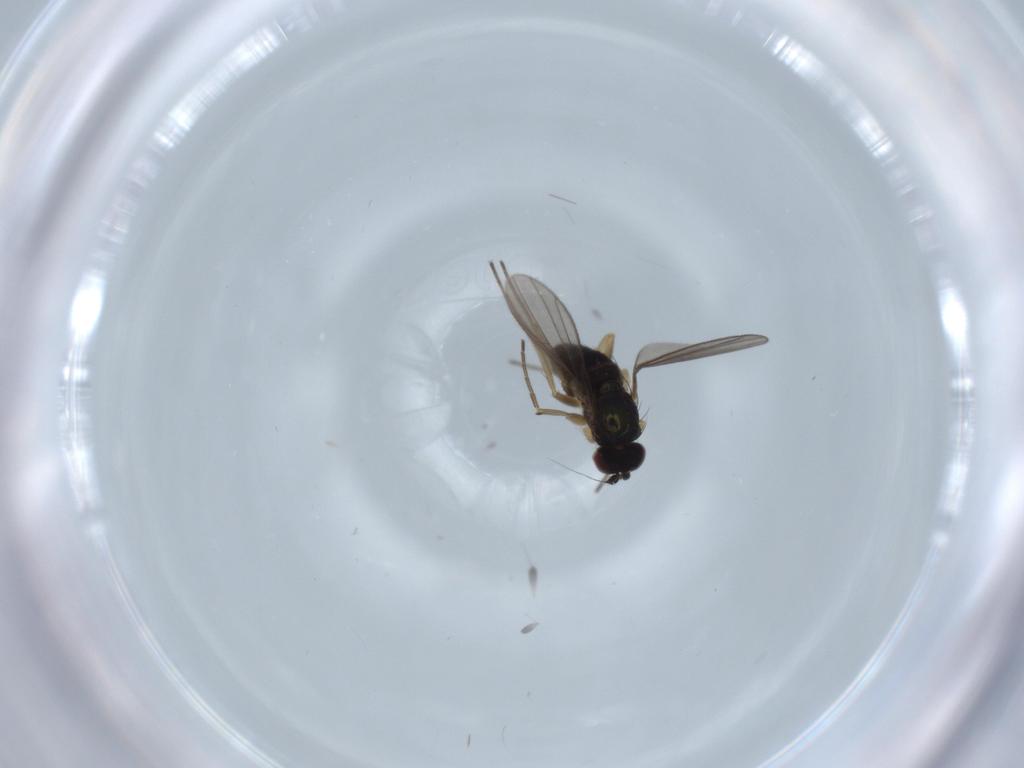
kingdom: Animalia
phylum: Arthropoda
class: Insecta
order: Diptera
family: Dolichopodidae
